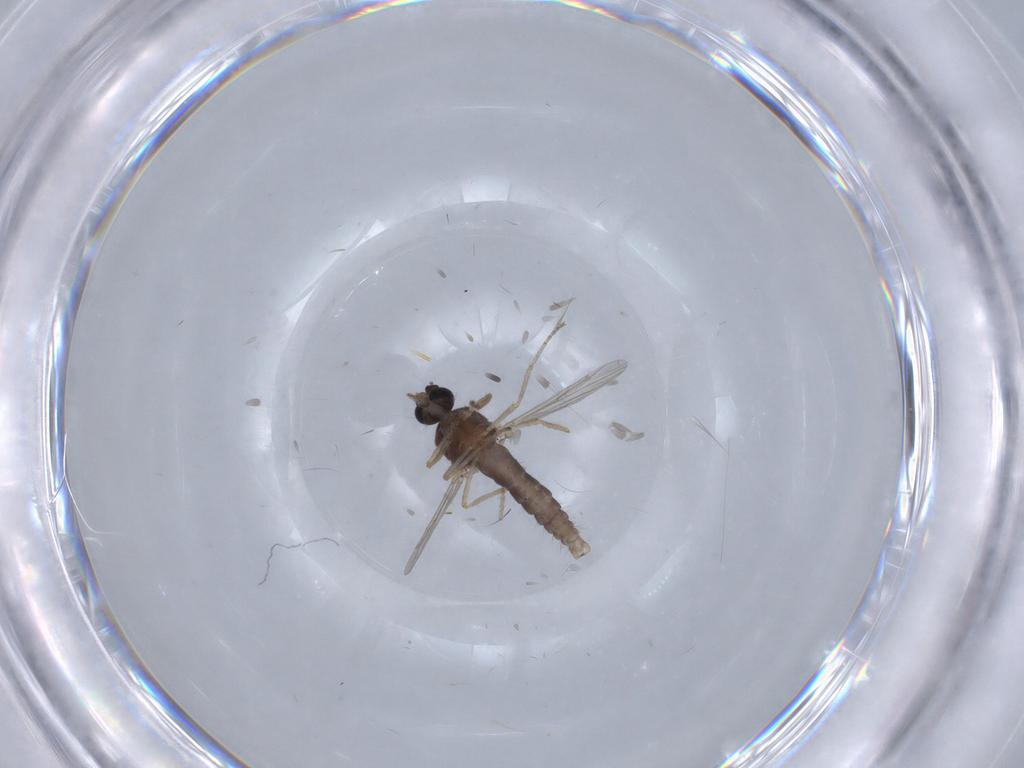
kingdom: Animalia
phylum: Arthropoda
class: Insecta
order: Diptera
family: Ceratopogonidae
